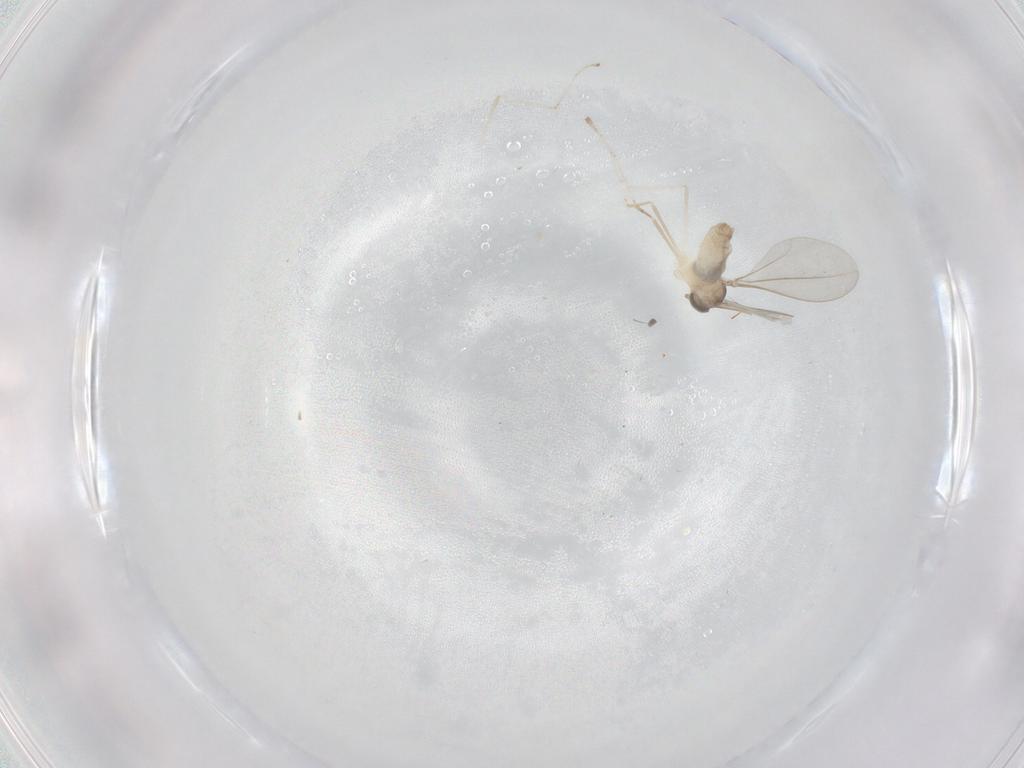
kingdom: Animalia
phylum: Arthropoda
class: Insecta
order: Diptera
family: Cecidomyiidae
